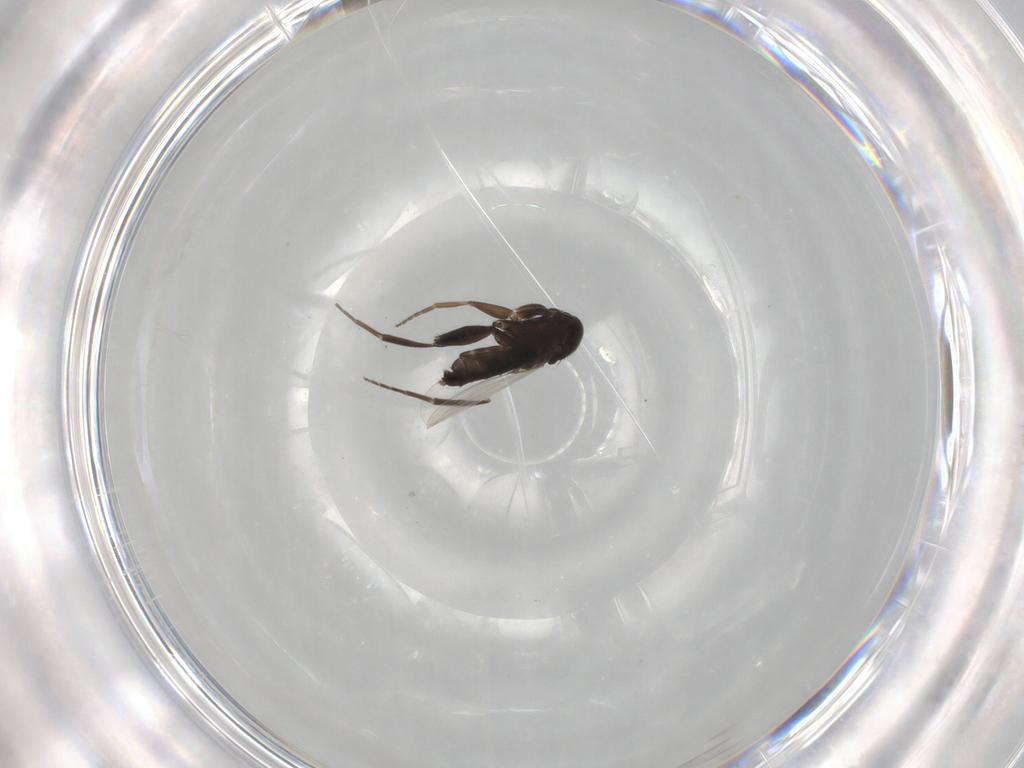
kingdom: Animalia
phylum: Arthropoda
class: Insecta
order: Diptera
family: Phoridae
